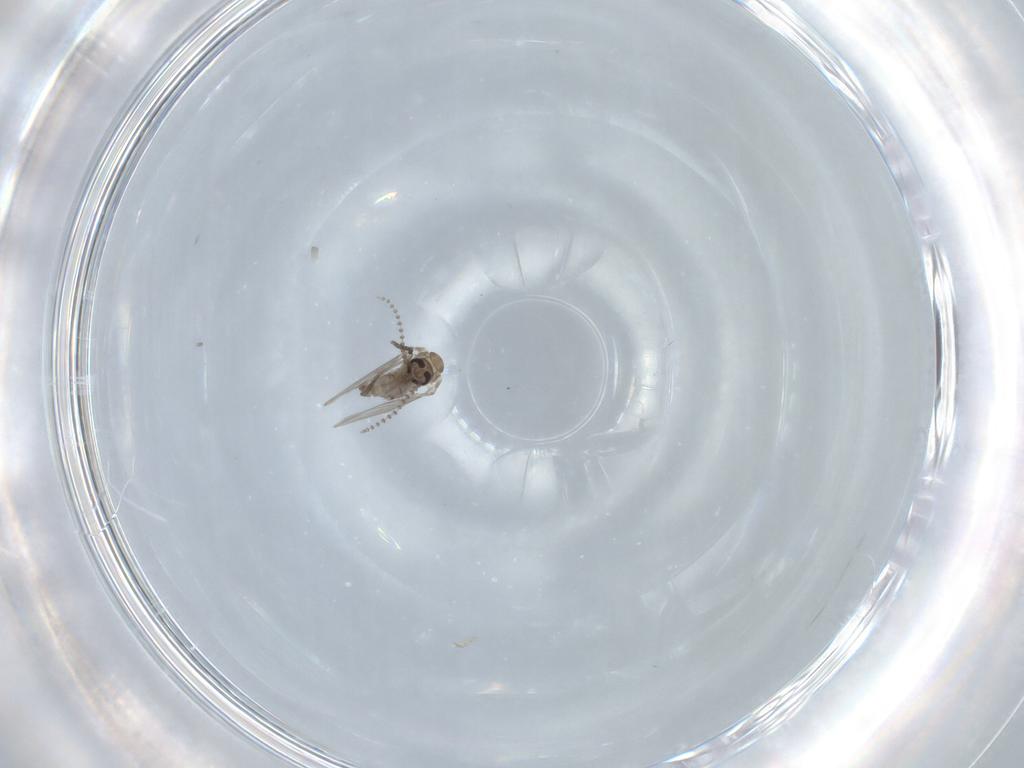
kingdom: Animalia
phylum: Arthropoda
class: Insecta
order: Diptera
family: Psychodidae
